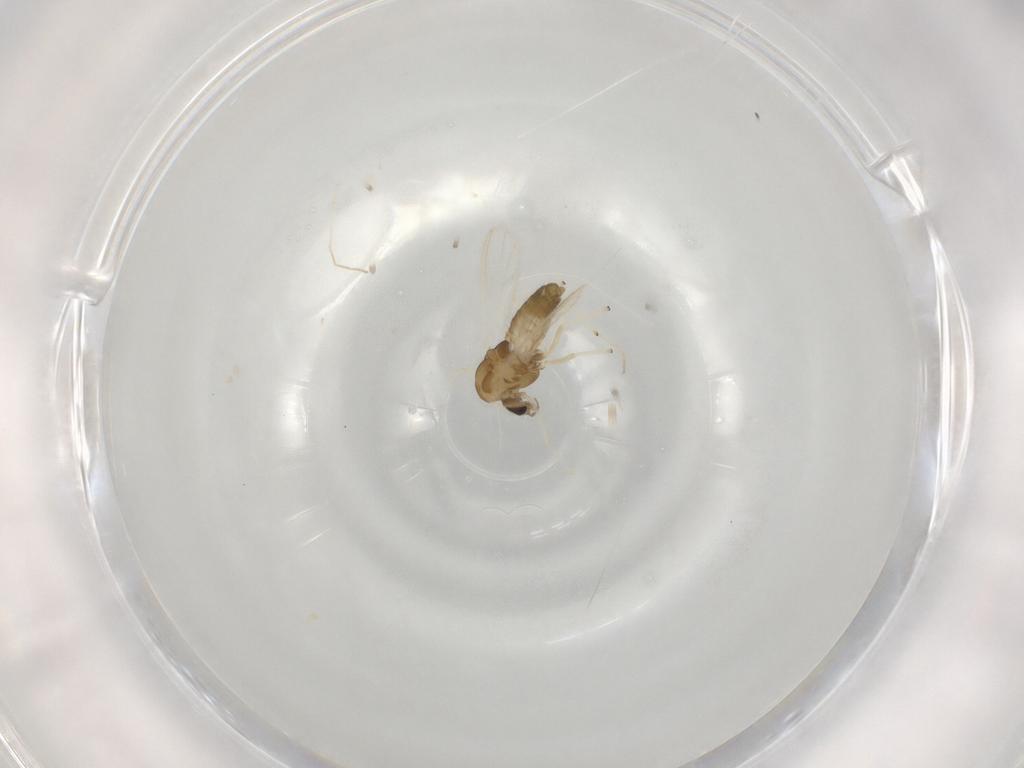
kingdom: Animalia
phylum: Arthropoda
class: Insecta
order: Diptera
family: Chironomidae
